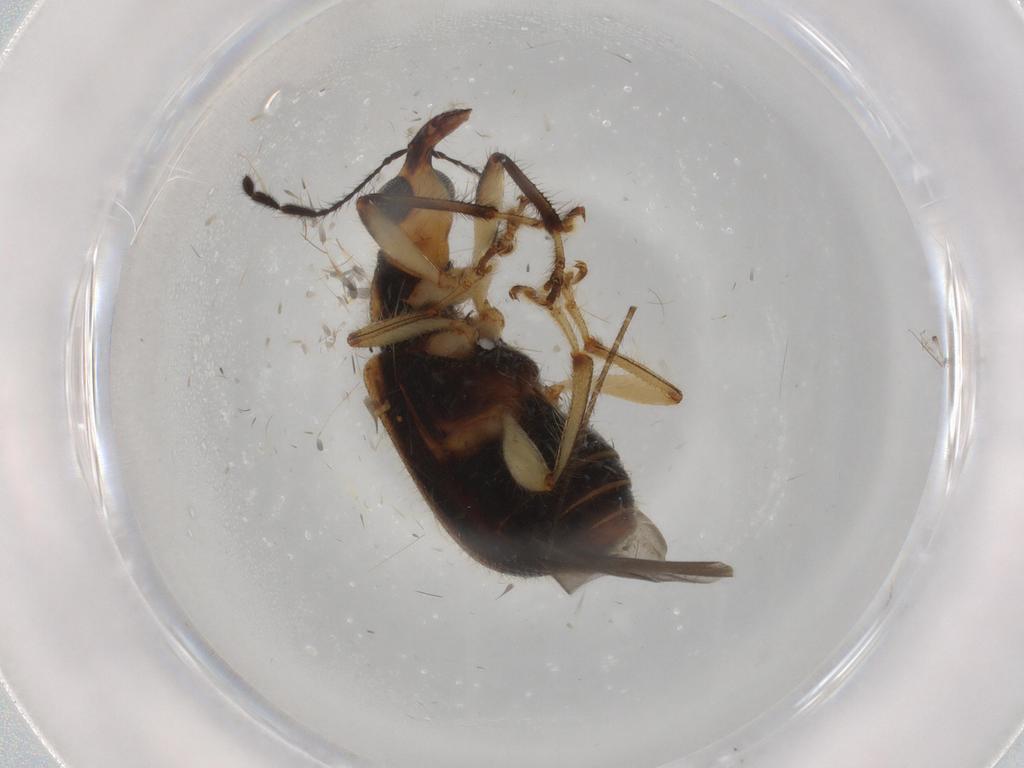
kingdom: Animalia
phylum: Arthropoda
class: Insecta
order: Coleoptera
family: Attelabidae
